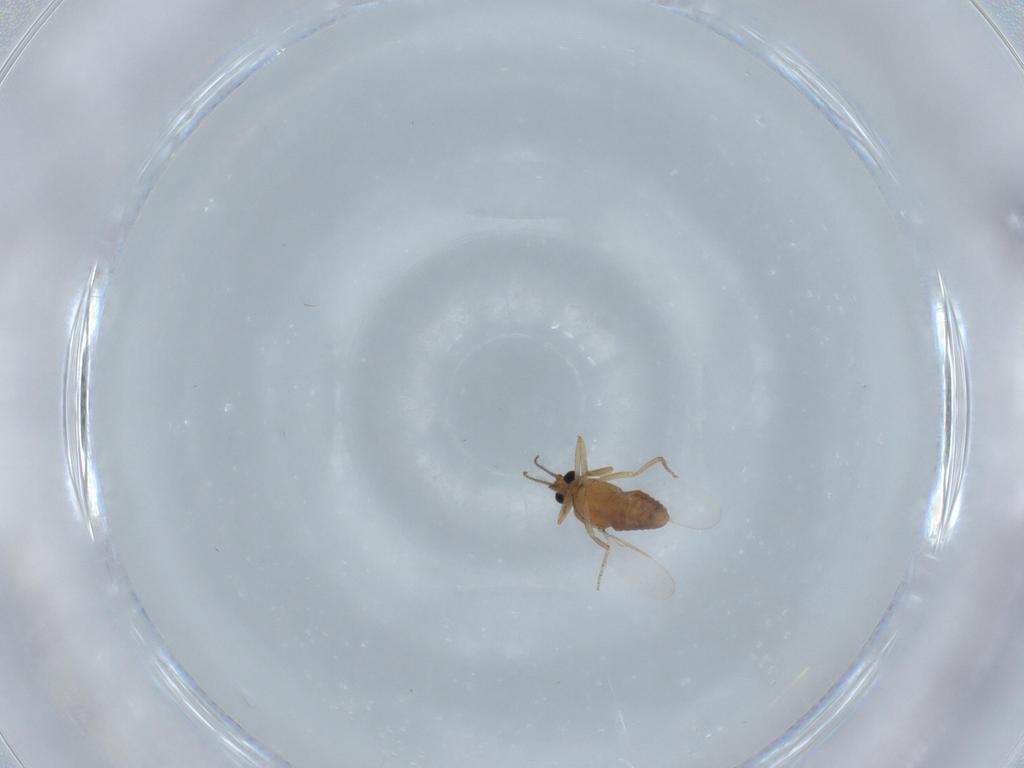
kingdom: Animalia
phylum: Arthropoda
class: Insecta
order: Diptera
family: Ceratopogonidae
